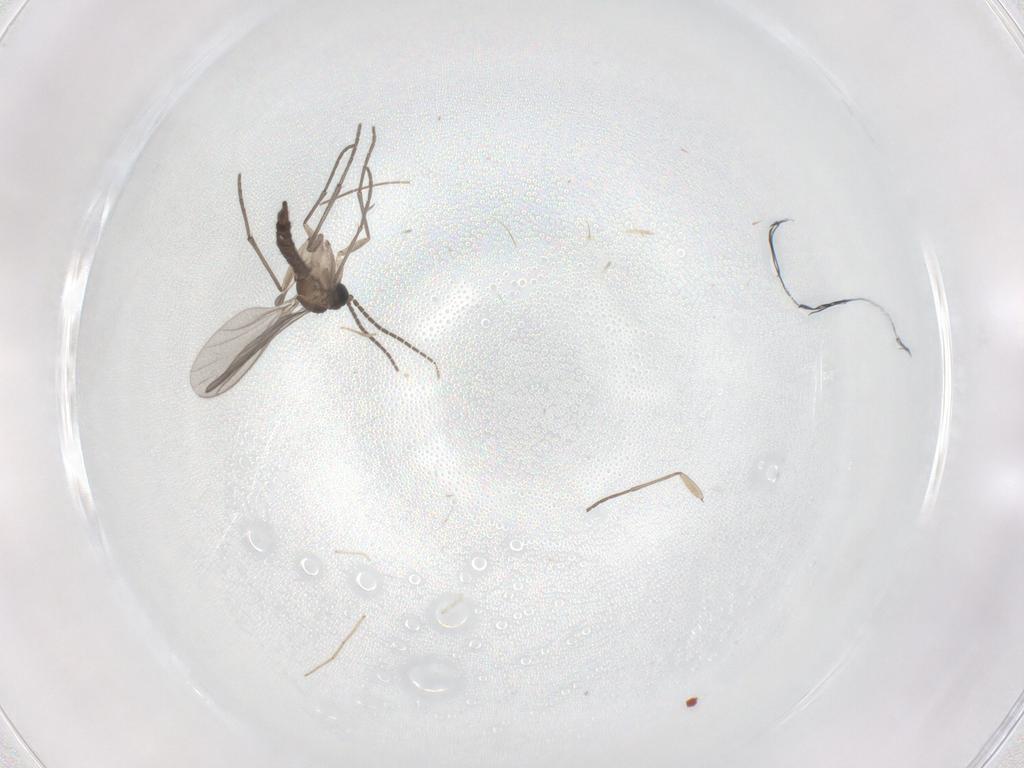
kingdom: Animalia
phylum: Arthropoda
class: Insecta
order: Diptera
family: Sciaridae
